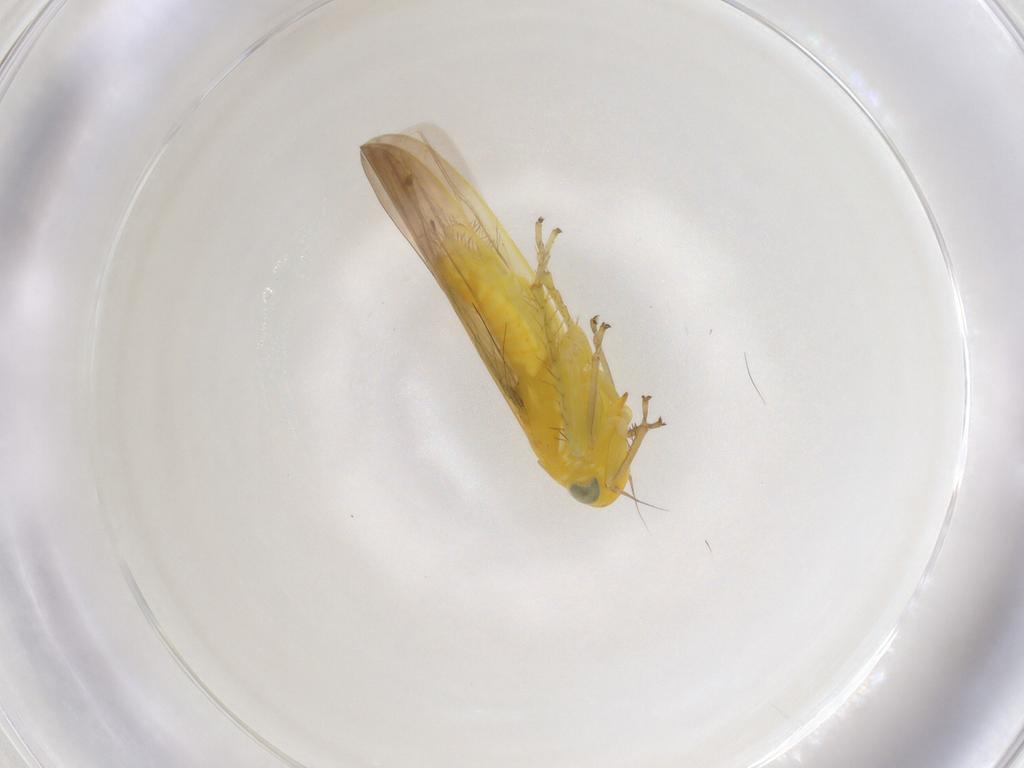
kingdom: Animalia
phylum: Arthropoda
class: Insecta
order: Hemiptera
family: Cicadellidae
